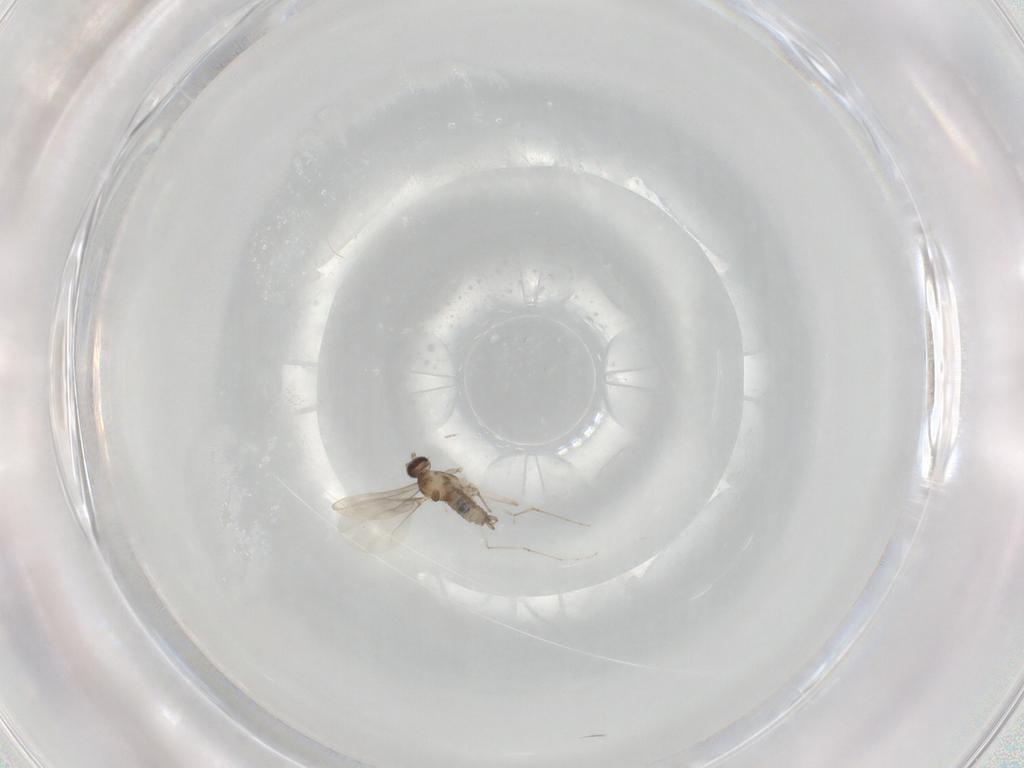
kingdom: Animalia
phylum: Arthropoda
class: Insecta
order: Diptera
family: Cecidomyiidae
